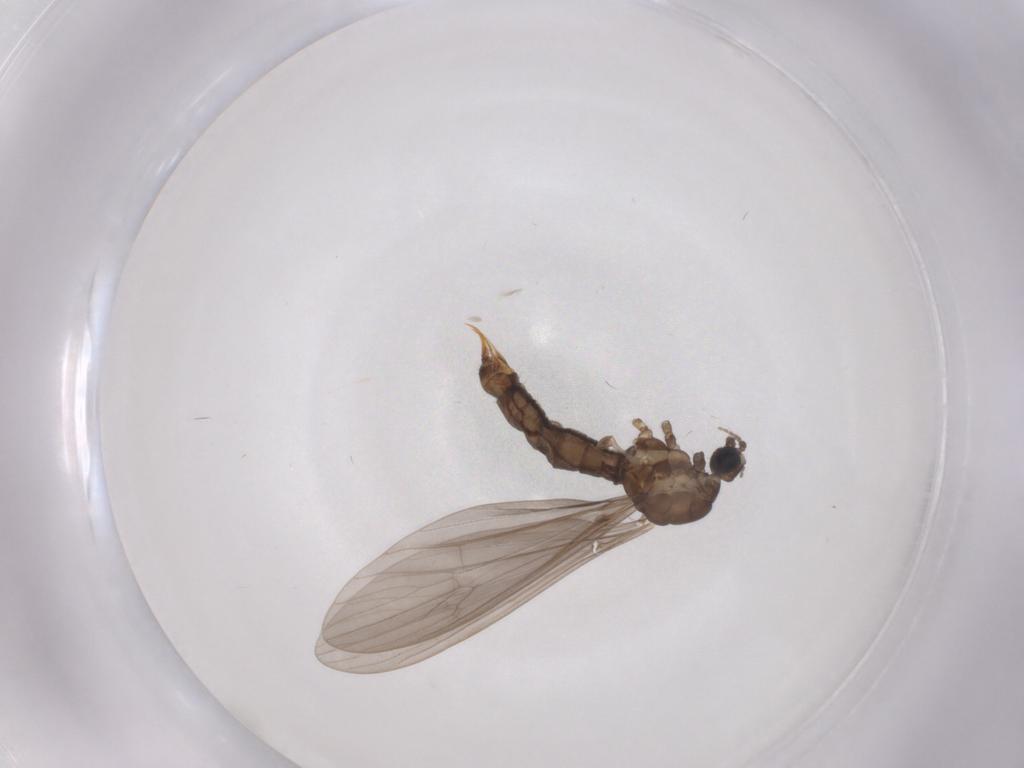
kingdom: Animalia
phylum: Arthropoda
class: Insecta
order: Diptera
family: Limoniidae
